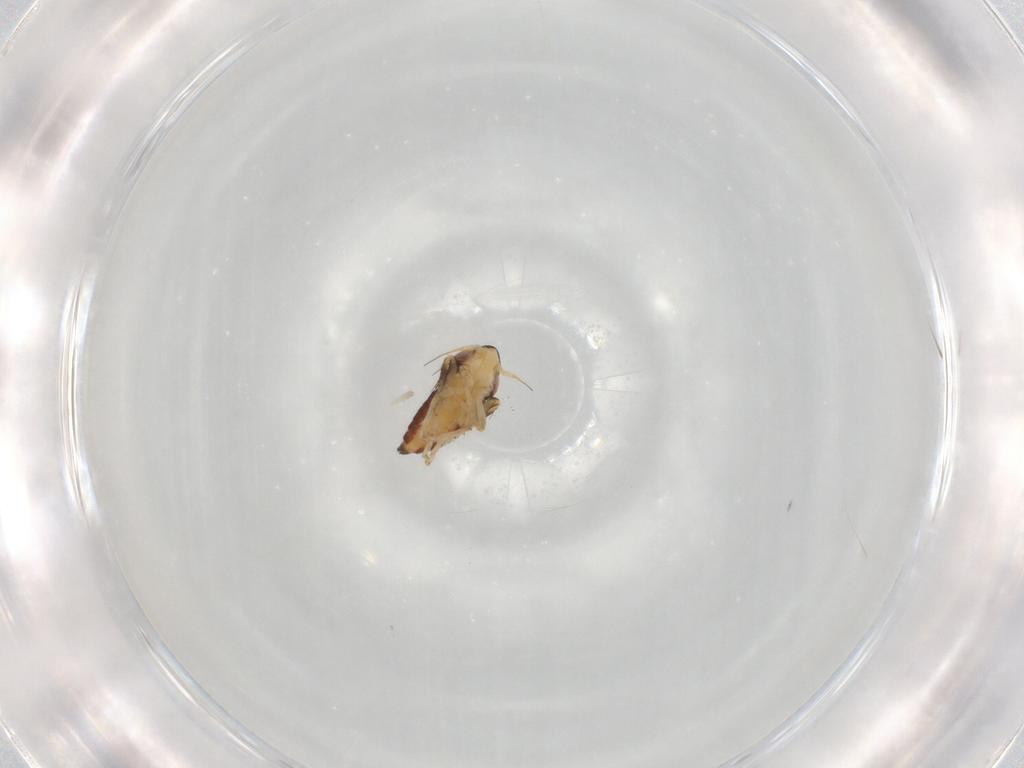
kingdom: Animalia
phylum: Arthropoda
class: Insecta
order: Hemiptera
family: Cicadellidae
